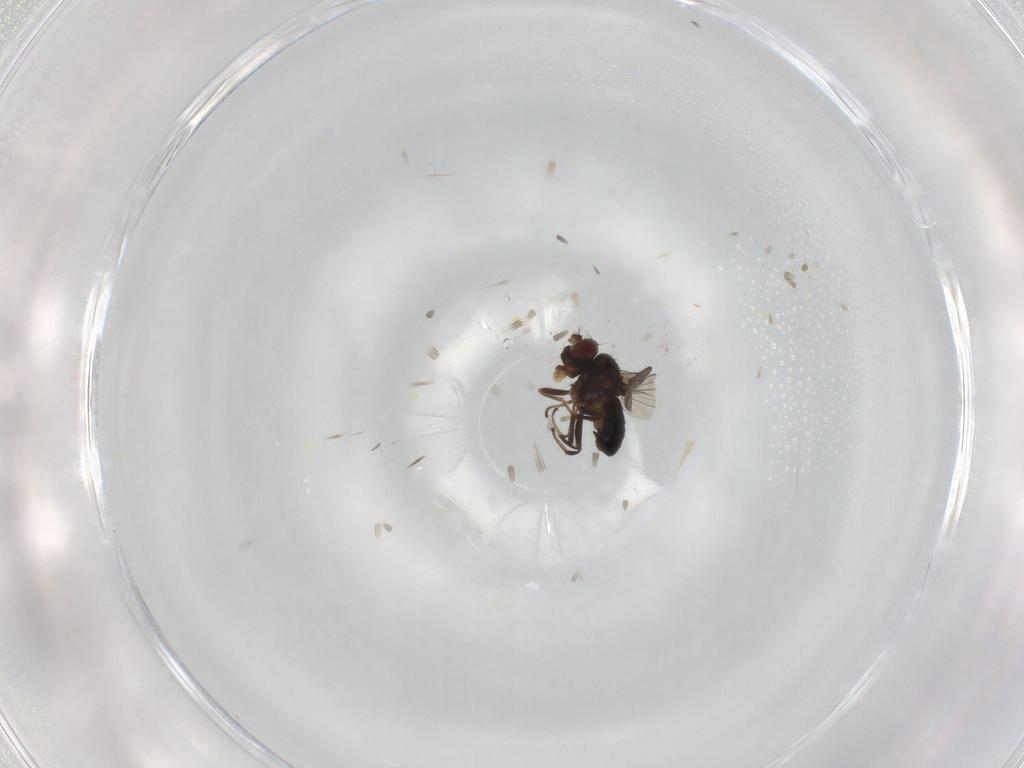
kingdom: Animalia
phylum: Arthropoda
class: Insecta
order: Diptera
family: Ephydridae
